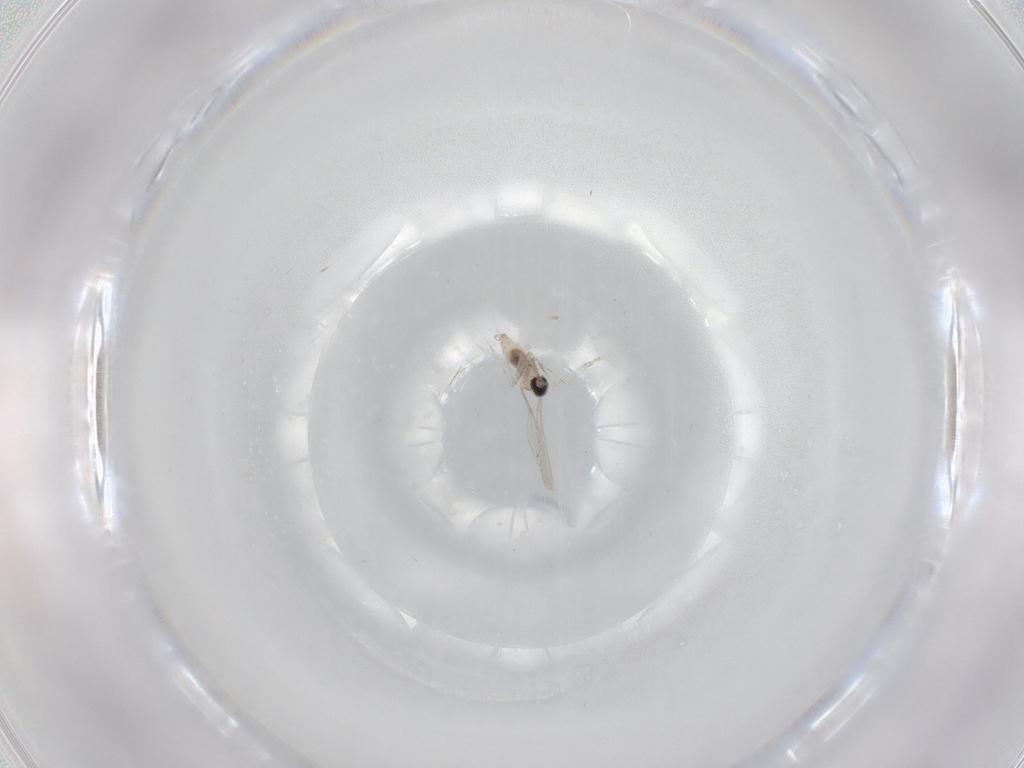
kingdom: Animalia
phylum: Arthropoda
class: Insecta
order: Diptera
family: Cecidomyiidae
